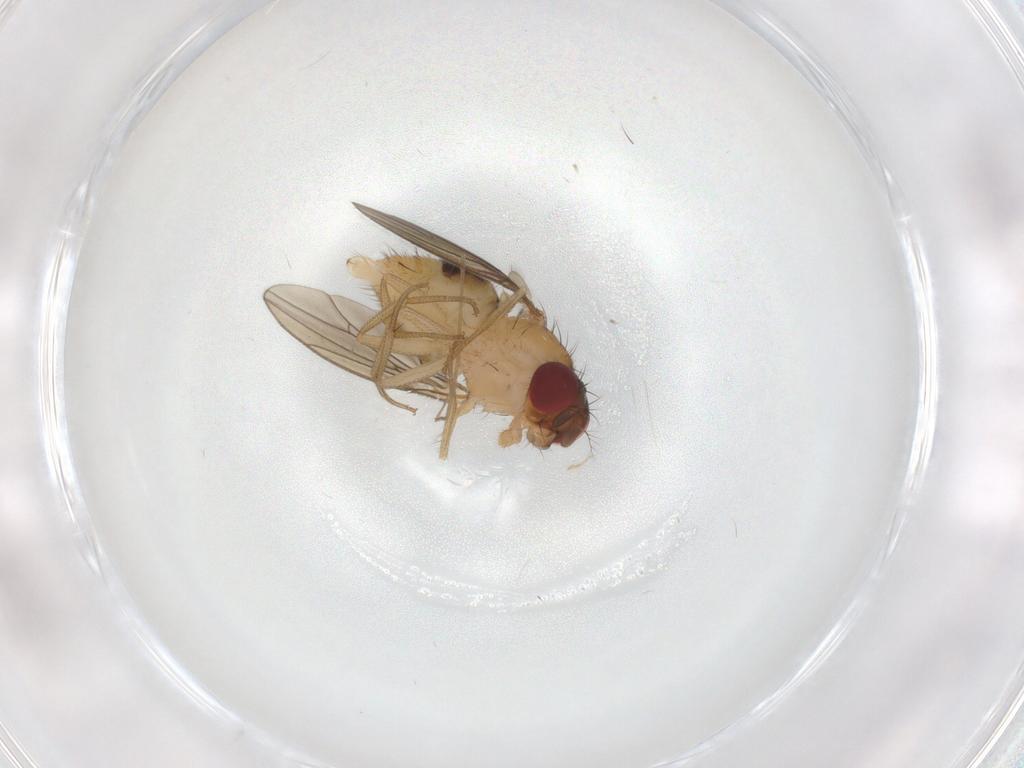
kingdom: Animalia
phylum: Arthropoda
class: Insecta
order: Diptera
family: Drosophilidae
